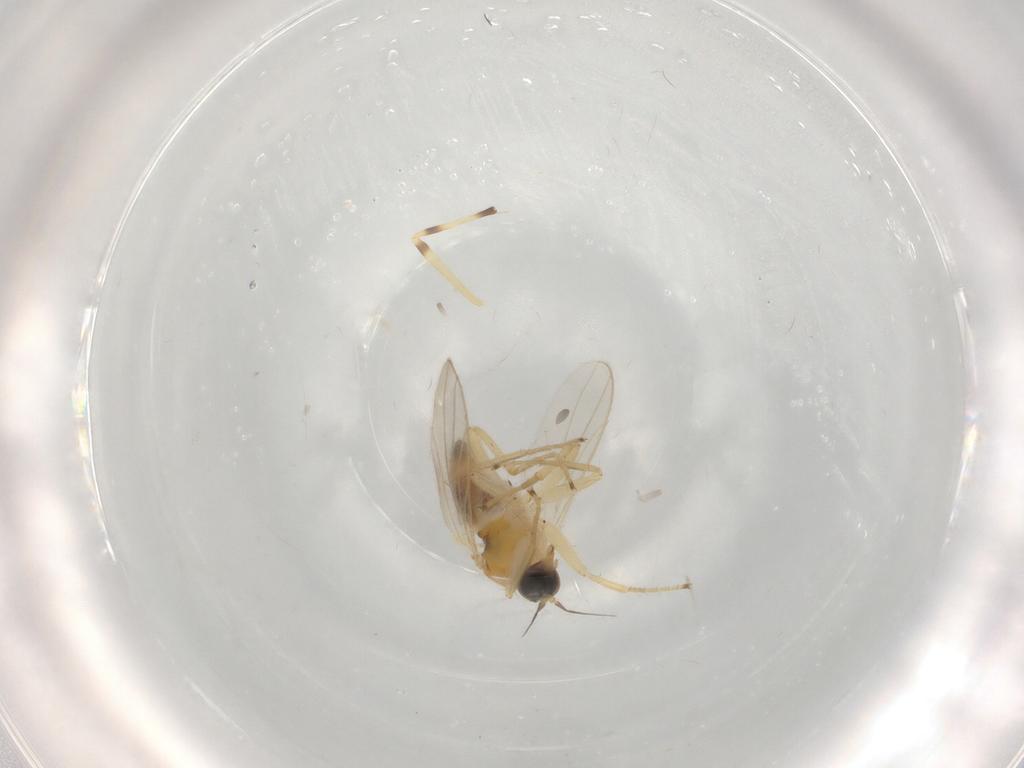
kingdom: Animalia
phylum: Arthropoda
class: Insecta
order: Diptera
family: Hybotidae
